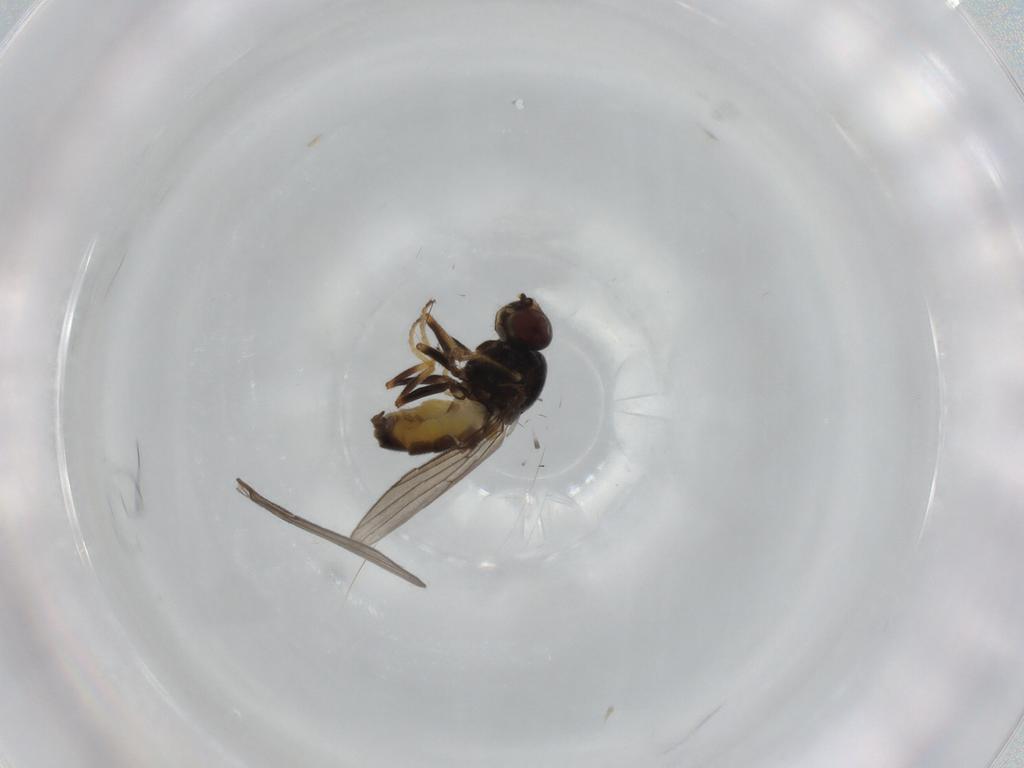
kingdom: Animalia
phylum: Arthropoda
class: Insecta
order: Diptera
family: Chloropidae
